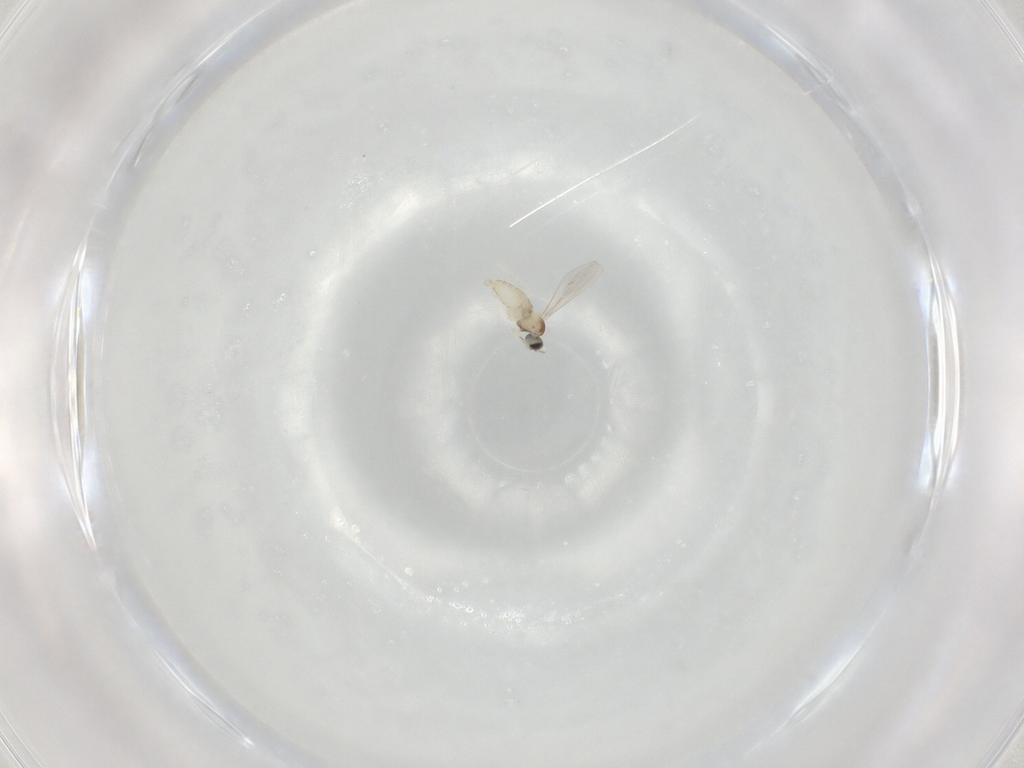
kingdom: Animalia
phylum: Arthropoda
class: Insecta
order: Diptera
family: Cecidomyiidae
